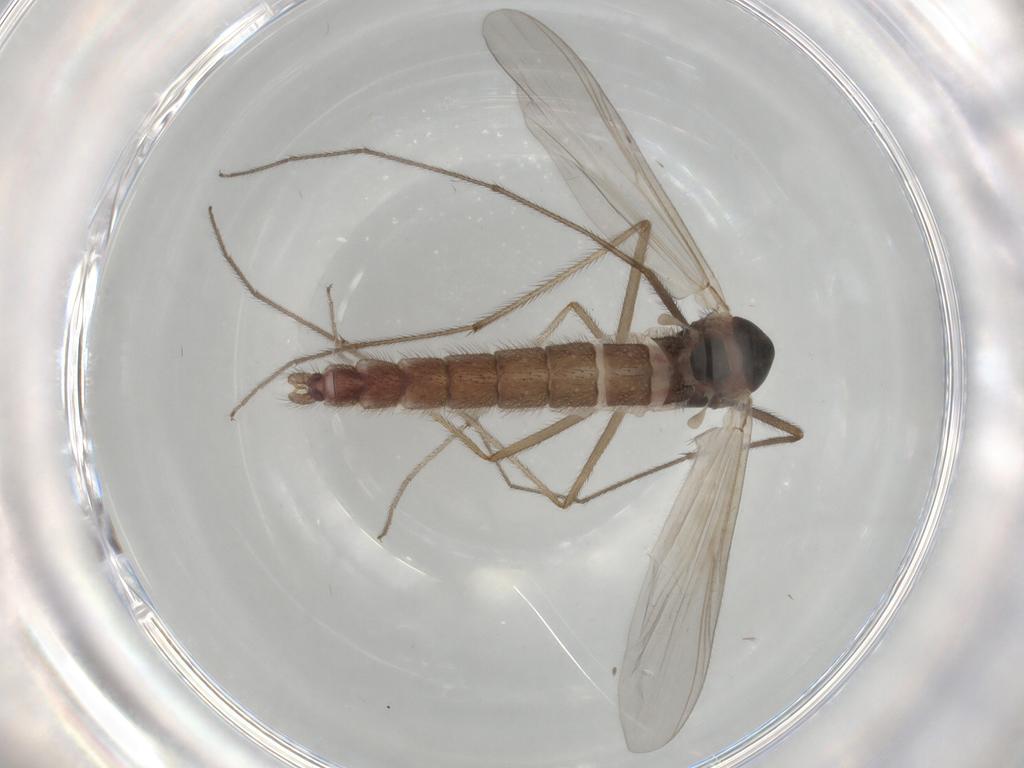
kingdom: Animalia
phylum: Arthropoda
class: Insecta
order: Diptera
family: Chironomidae
